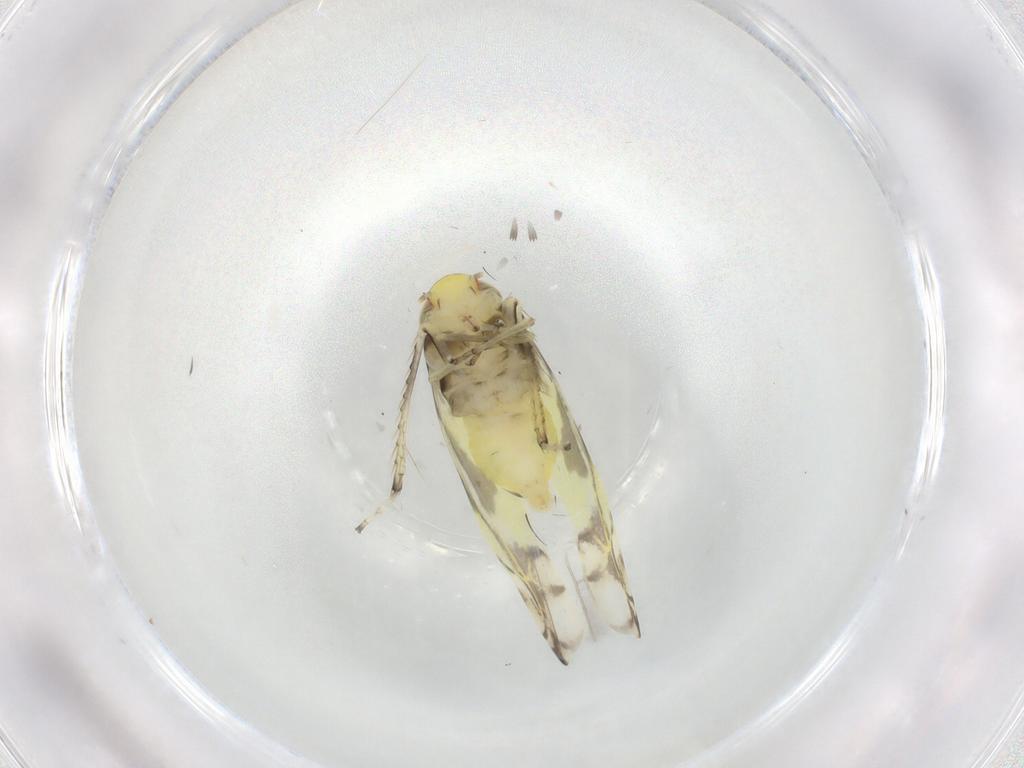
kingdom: Animalia
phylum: Arthropoda
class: Insecta
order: Hemiptera
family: Cicadellidae
